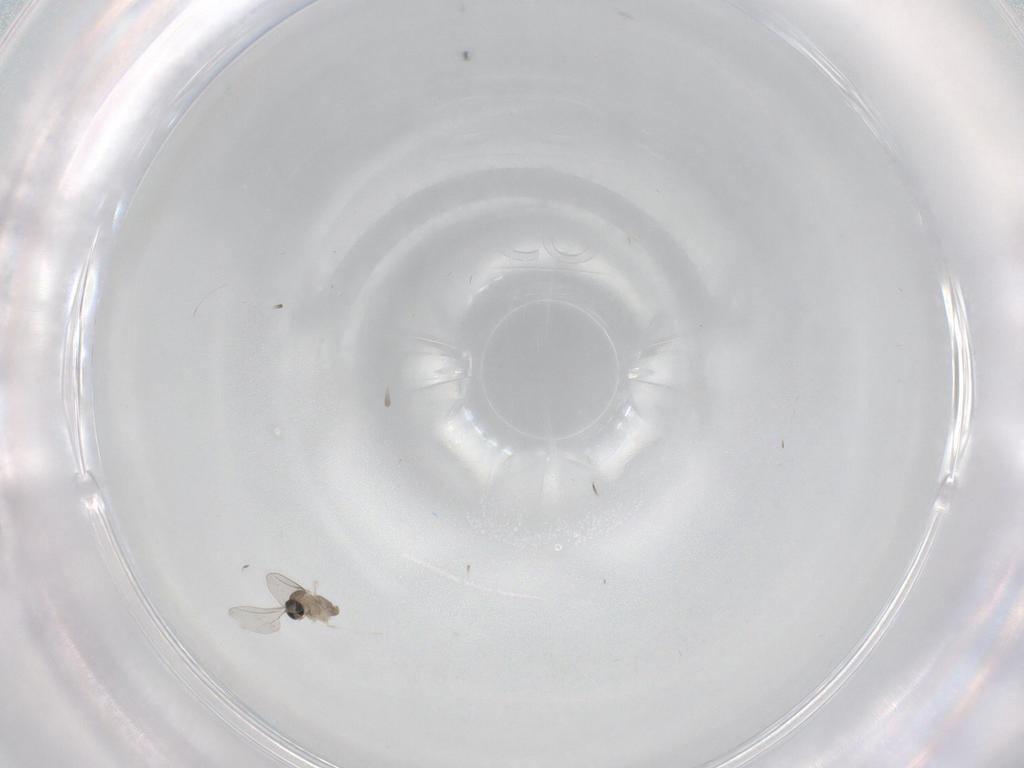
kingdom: Animalia
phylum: Arthropoda
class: Insecta
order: Diptera
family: Cecidomyiidae
